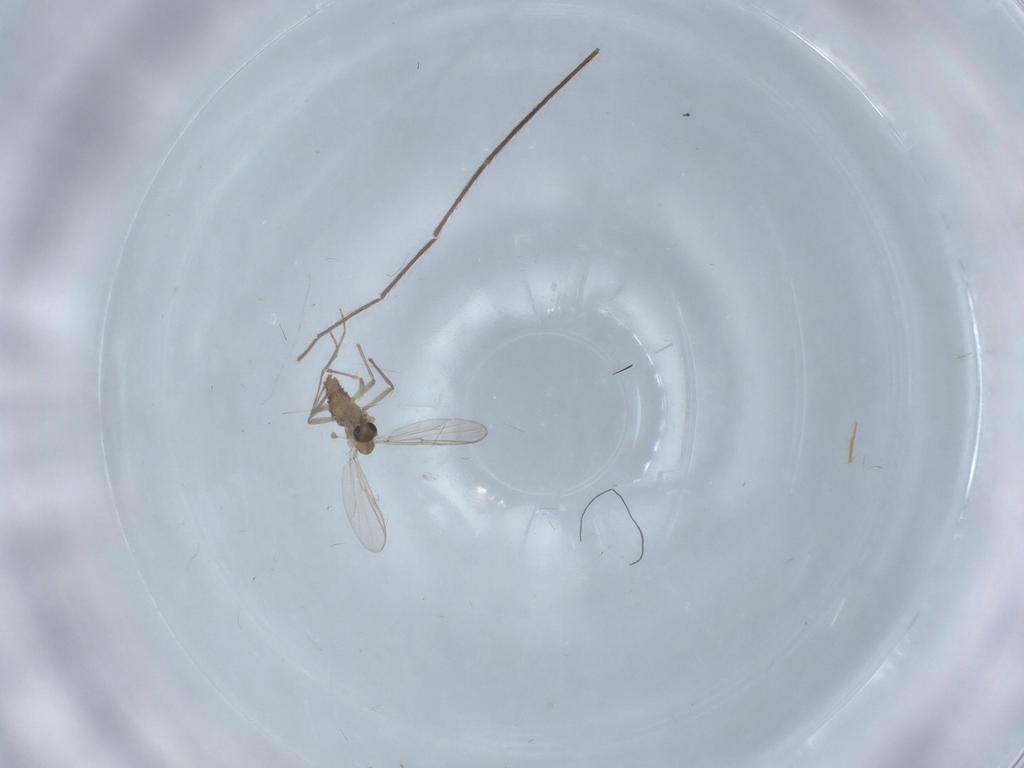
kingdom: Animalia
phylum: Arthropoda
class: Insecta
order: Diptera
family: Chironomidae
